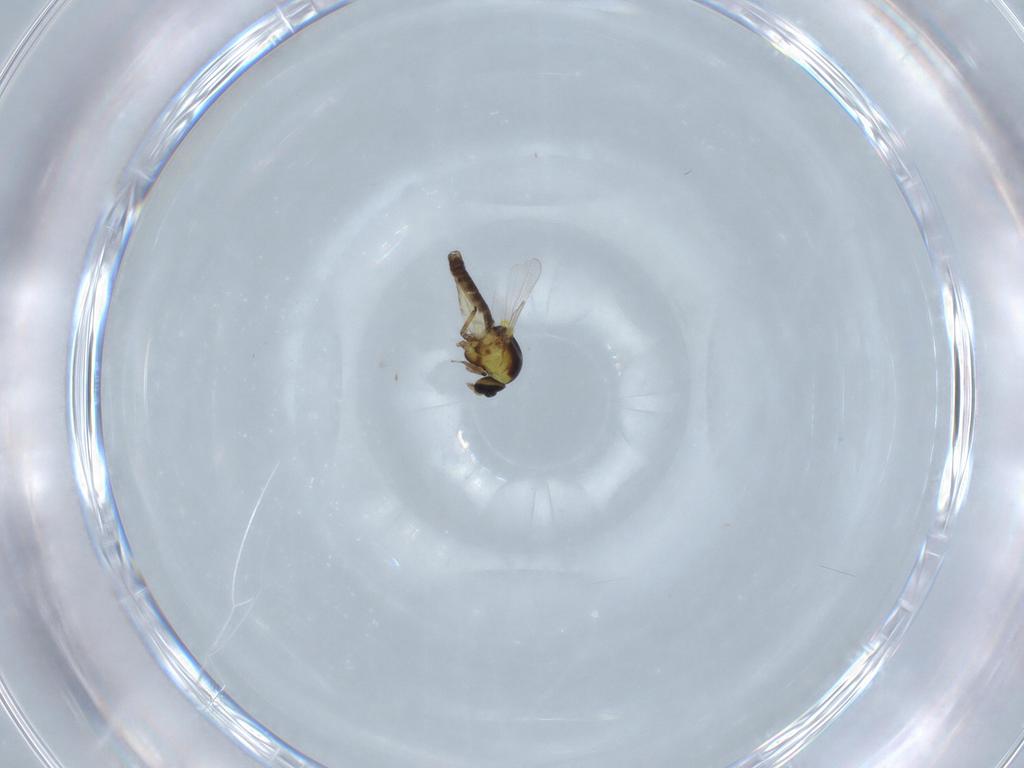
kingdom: Animalia
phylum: Arthropoda
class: Insecta
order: Diptera
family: Ceratopogonidae
